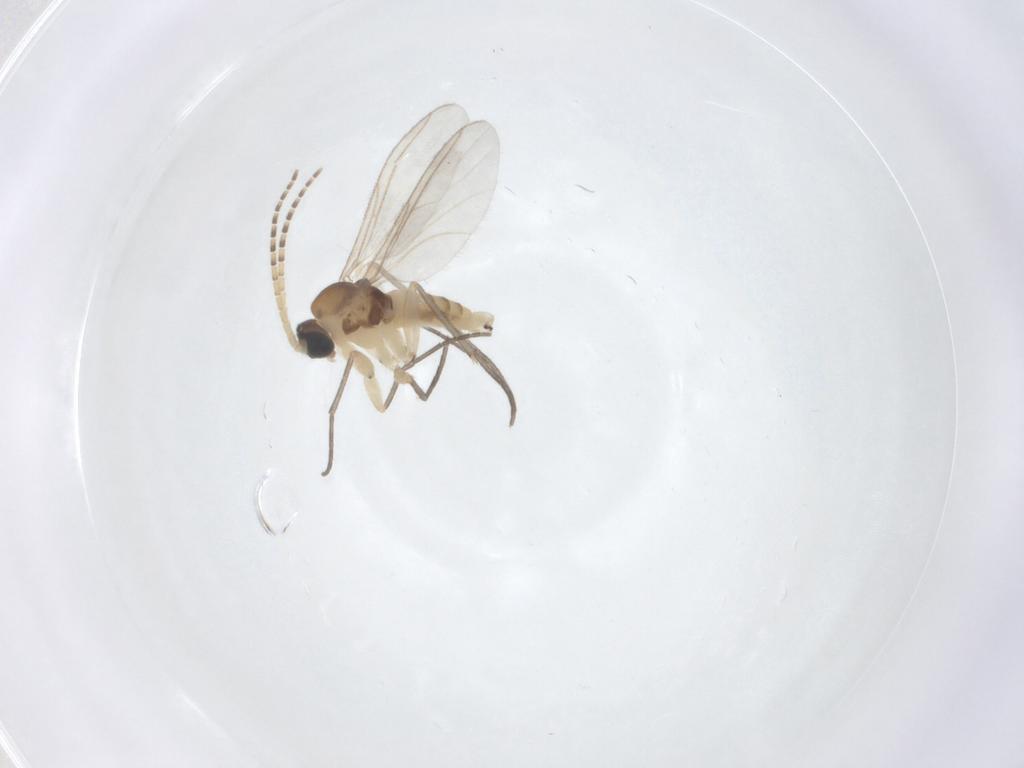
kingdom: Animalia
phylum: Arthropoda
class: Insecta
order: Diptera
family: Sciaridae
